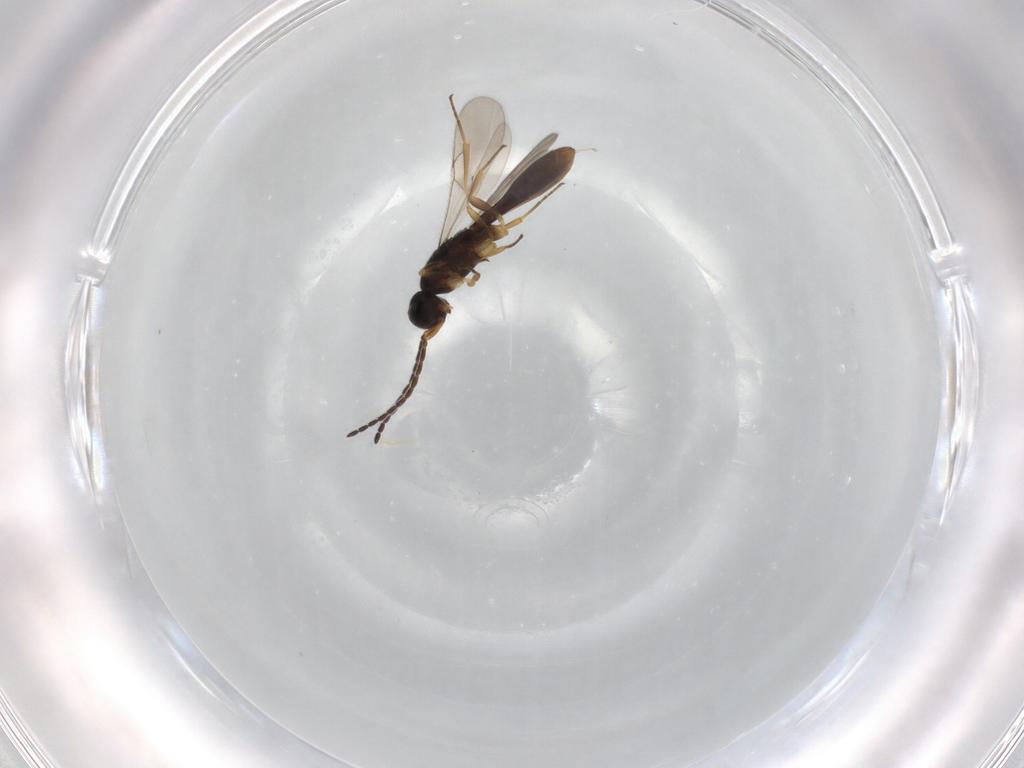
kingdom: Animalia
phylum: Arthropoda
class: Insecta
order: Hymenoptera
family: Scelionidae
